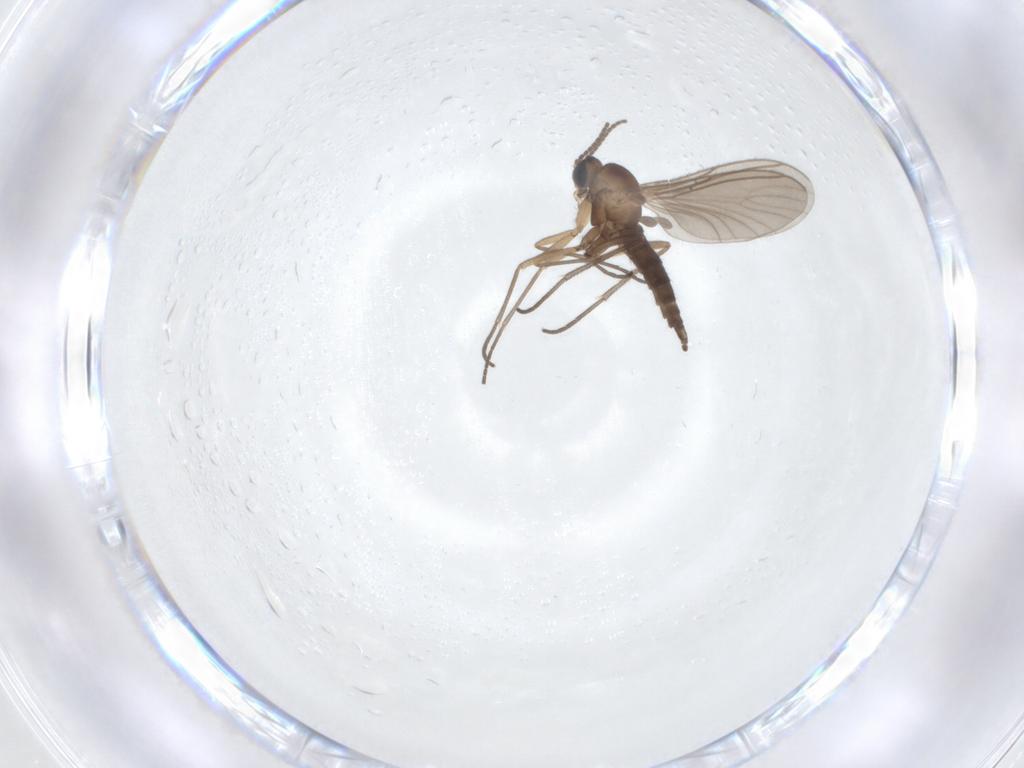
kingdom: Animalia
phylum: Arthropoda
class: Insecta
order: Diptera
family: Sciaridae
